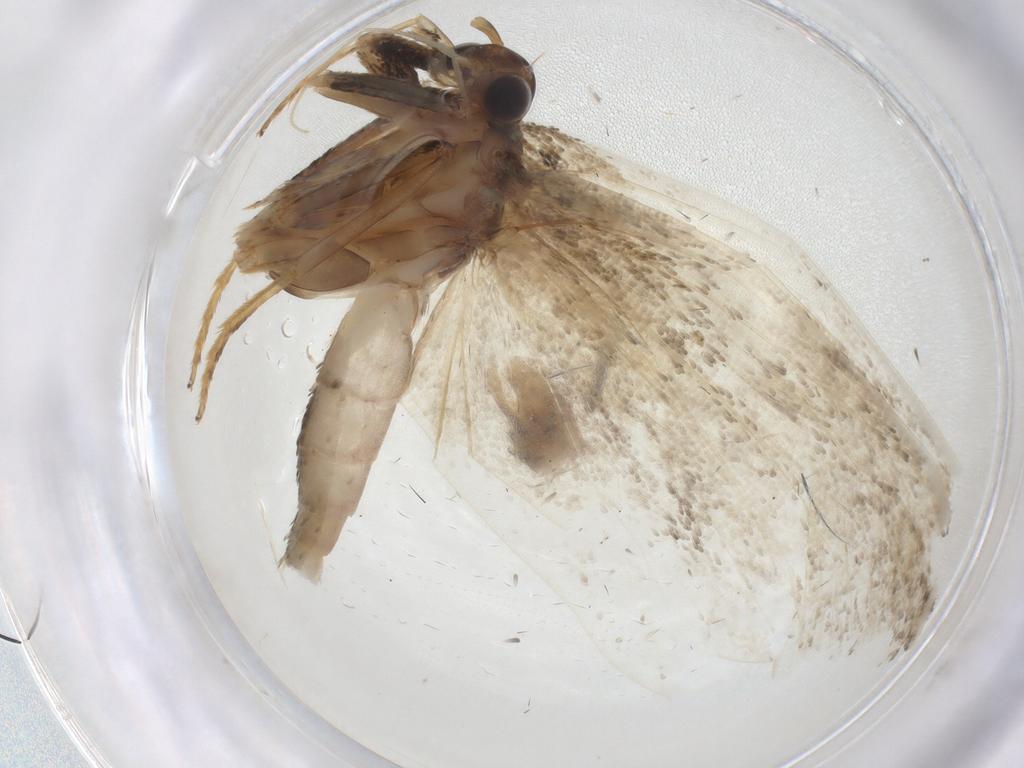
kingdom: Animalia
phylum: Arthropoda
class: Insecta
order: Lepidoptera
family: Depressariidae
